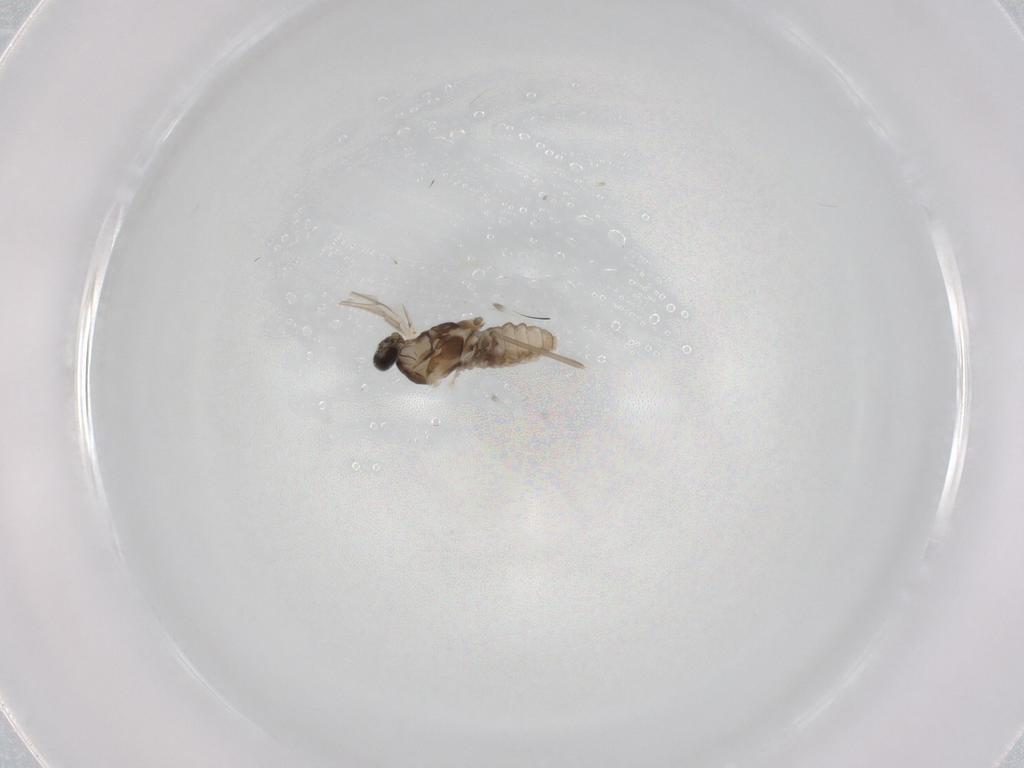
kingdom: Animalia
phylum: Arthropoda
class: Insecta
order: Diptera
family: Cecidomyiidae
